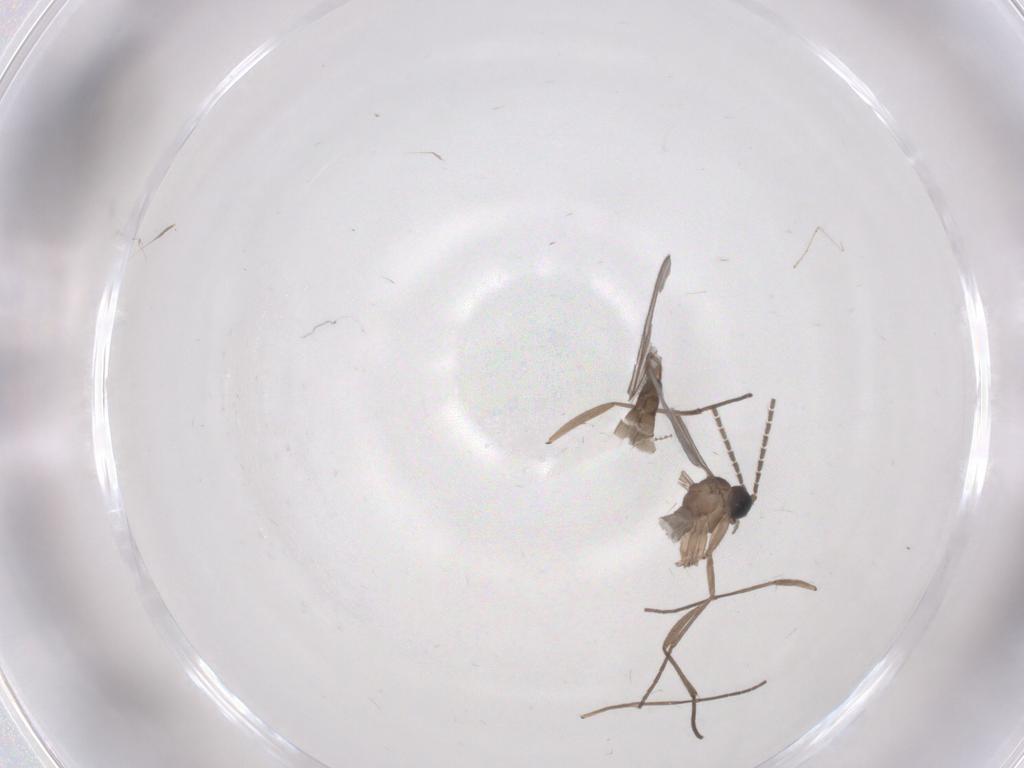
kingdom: Animalia
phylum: Arthropoda
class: Insecta
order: Diptera
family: Sciaridae
